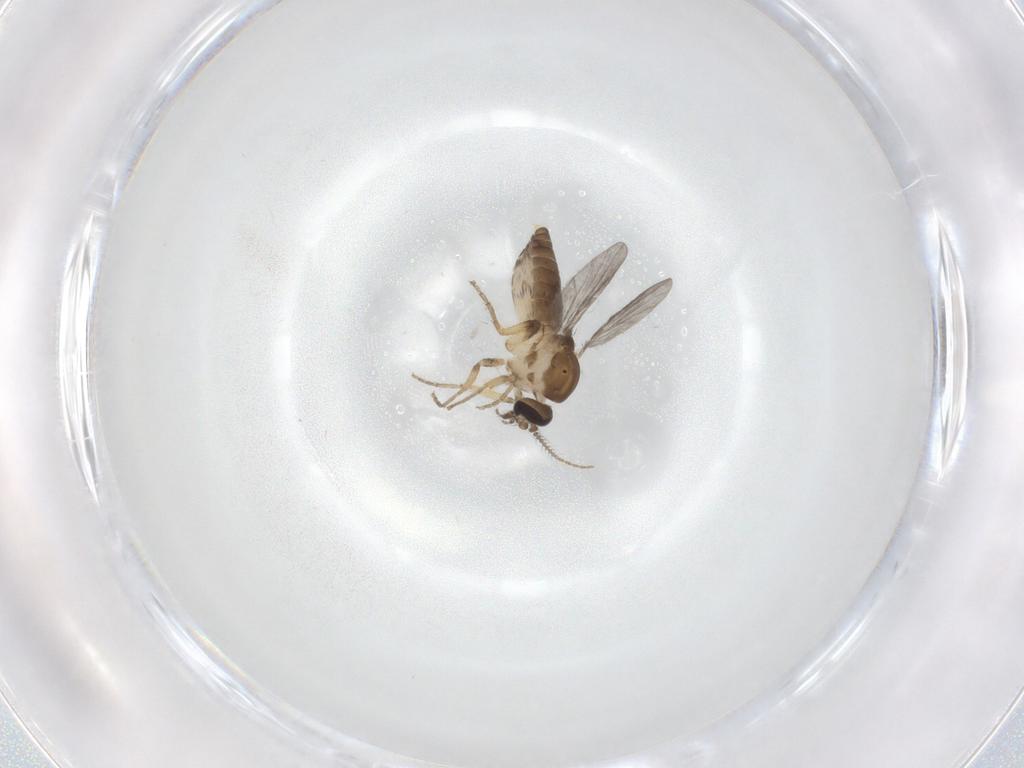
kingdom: Animalia
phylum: Arthropoda
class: Insecta
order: Diptera
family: Ceratopogonidae
